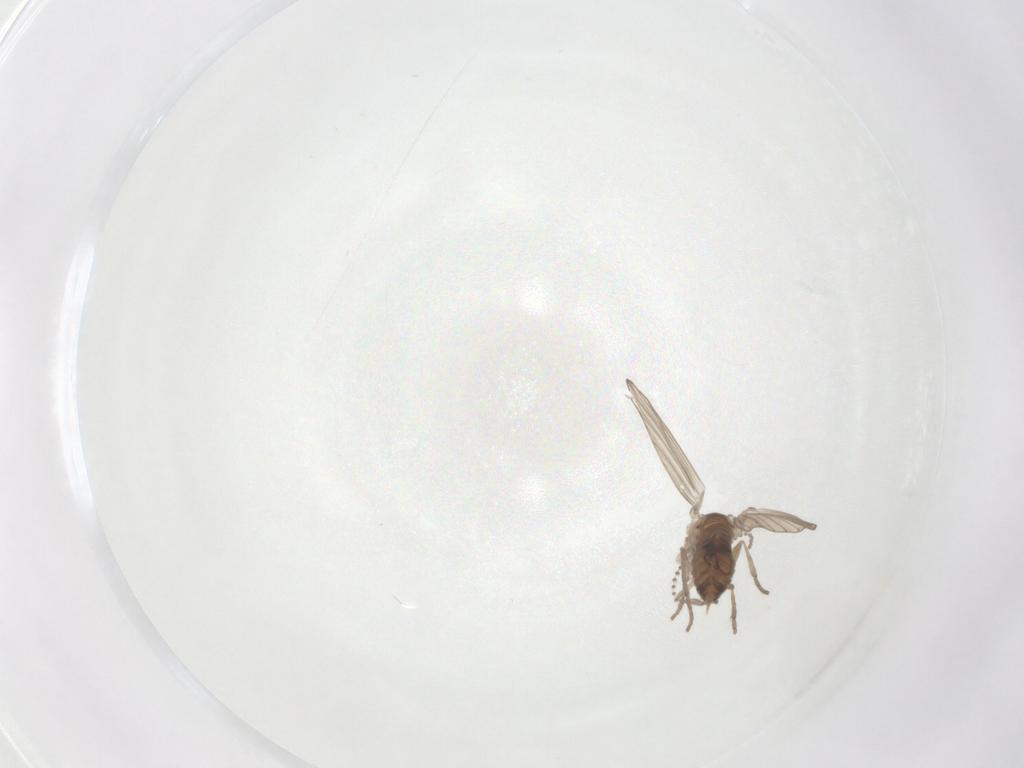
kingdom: Animalia
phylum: Arthropoda
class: Insecta
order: Diptera
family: Psychodidae
